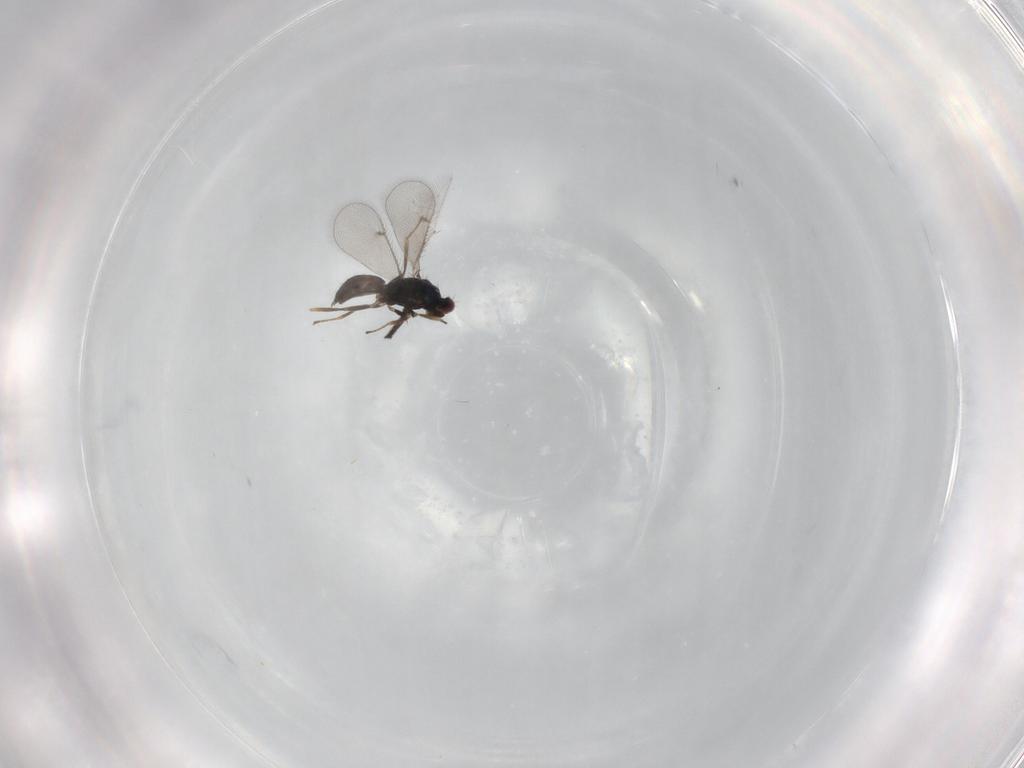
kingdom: Animalia
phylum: Arthropoda
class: Insecta
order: Hymenoptera
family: Eulophidae
